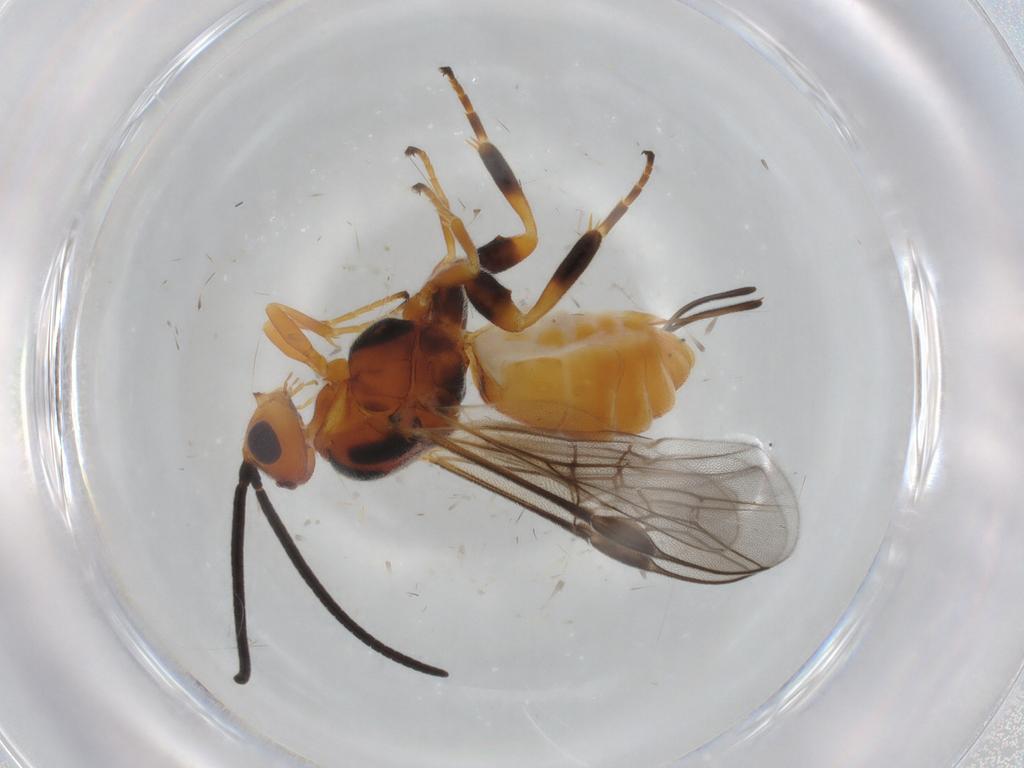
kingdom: Animalia
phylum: Arthropoda
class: Insecta
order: Hymenoptera
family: Braconidae
